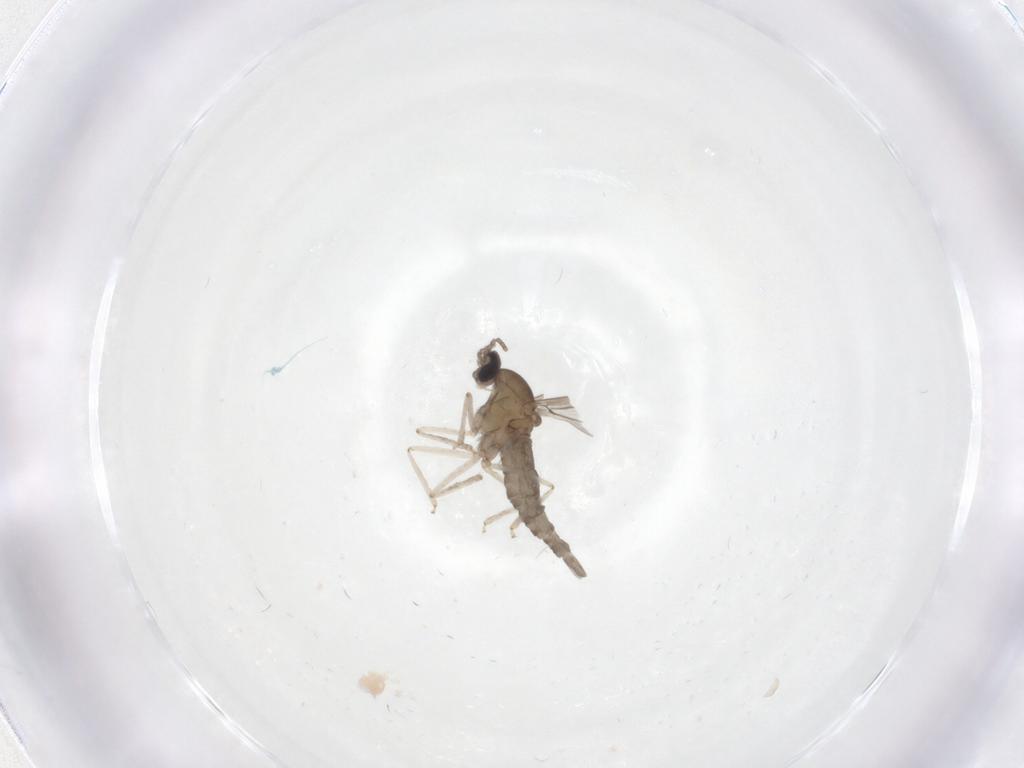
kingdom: Animalia
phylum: Arthropoda
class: Insecta
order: Diptera
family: Cecidomyiidae
